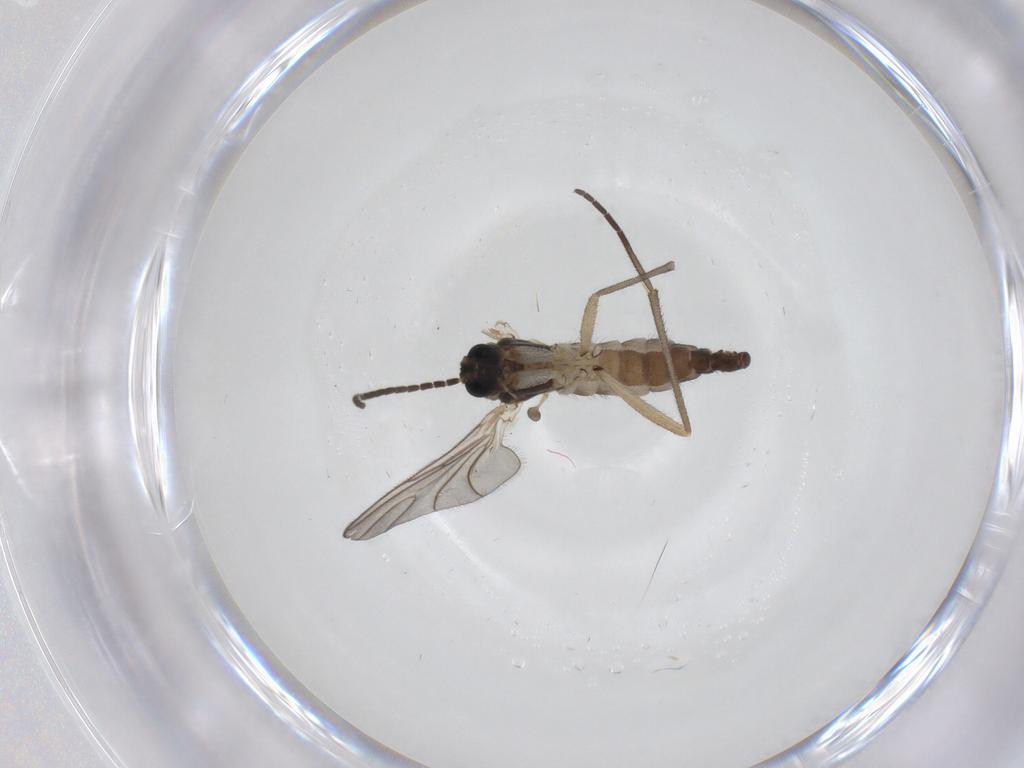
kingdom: Animalia
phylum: Arthropoda
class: Insecta
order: Diptera
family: Sciaridae
